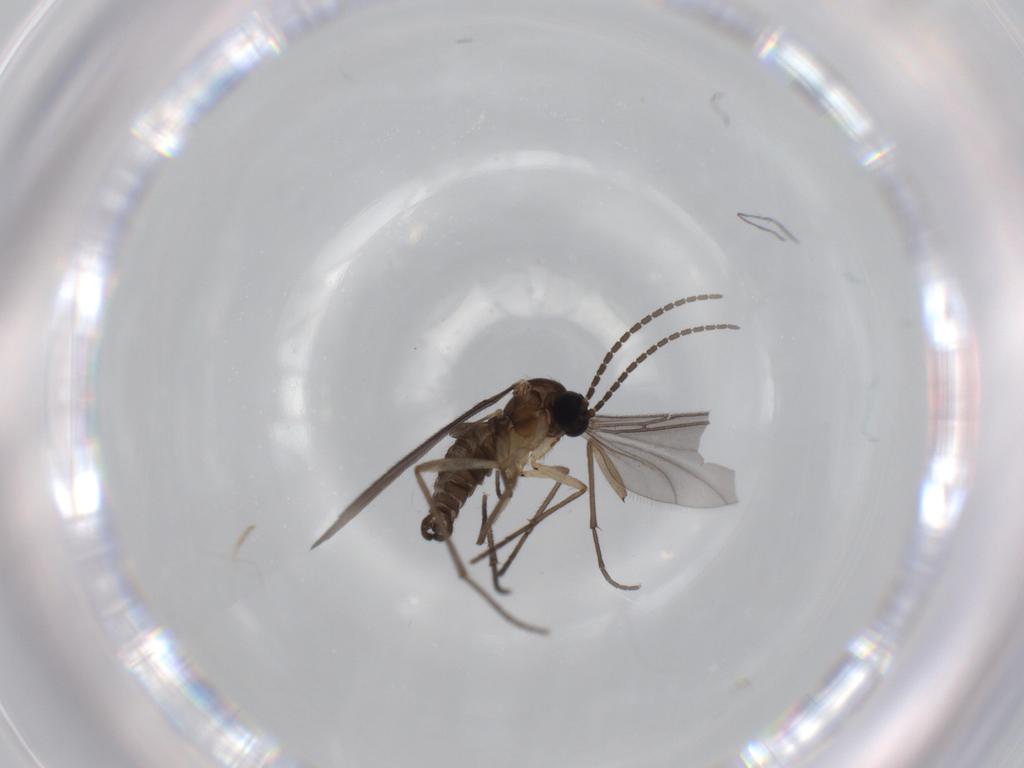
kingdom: Animalia
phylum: Arthropoda
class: Insecta
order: Diptera
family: Sciaridae
